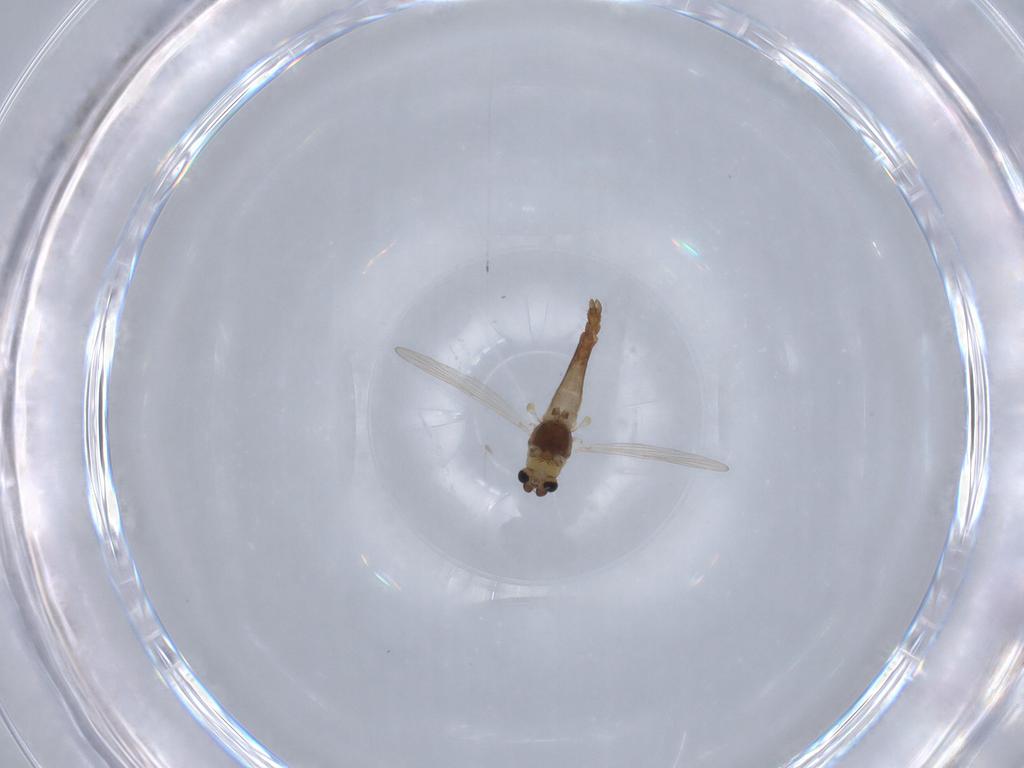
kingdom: Animalia
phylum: Arthropoda
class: Insecta
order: Diptera
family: Chironomidae
